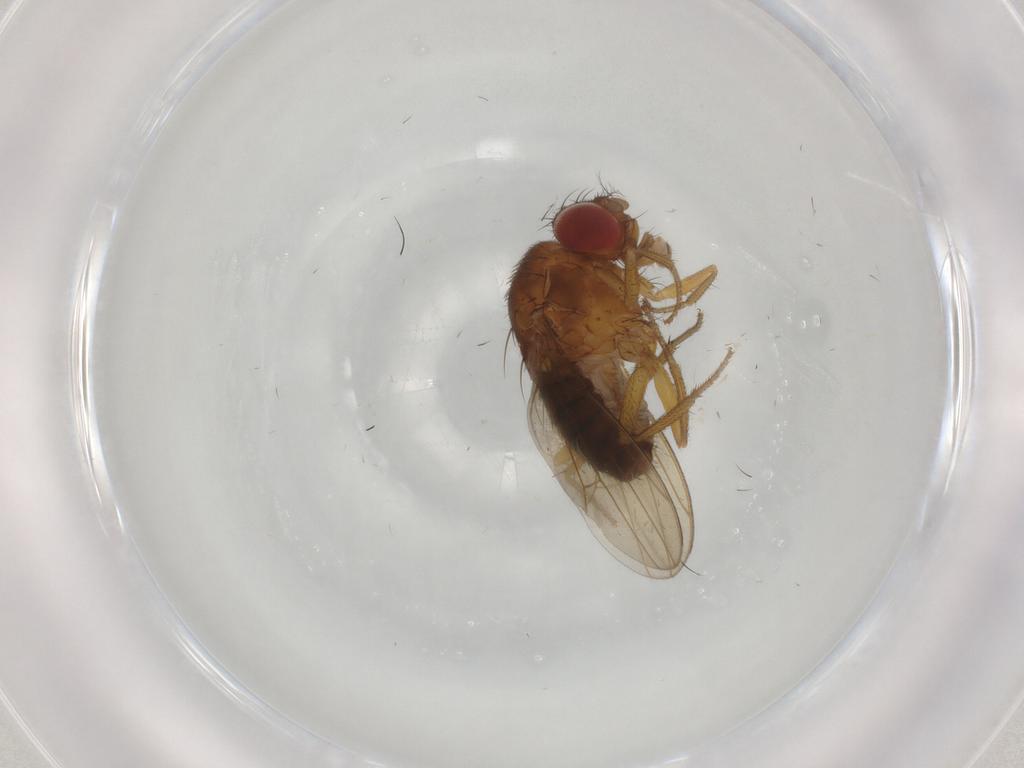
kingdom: Animalia
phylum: Arthropoda
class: Insecta
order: Diptera
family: Drosophilidae
